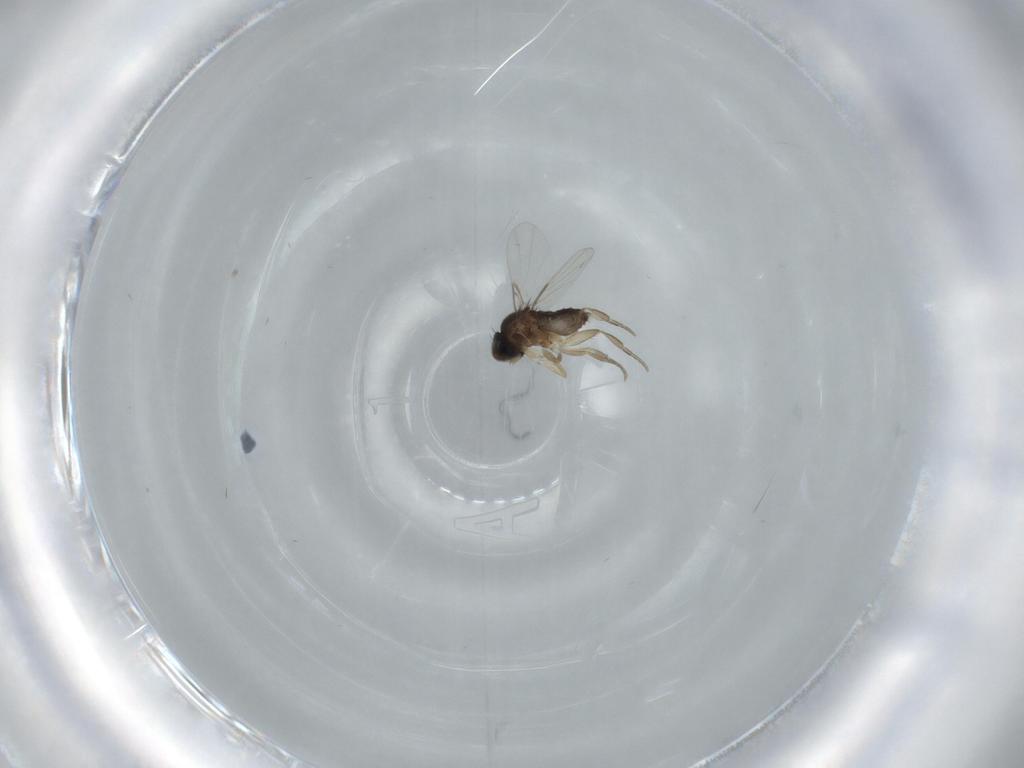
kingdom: Animalia
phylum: Arthropoda
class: Insecta
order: Diptera
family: Phoridae
